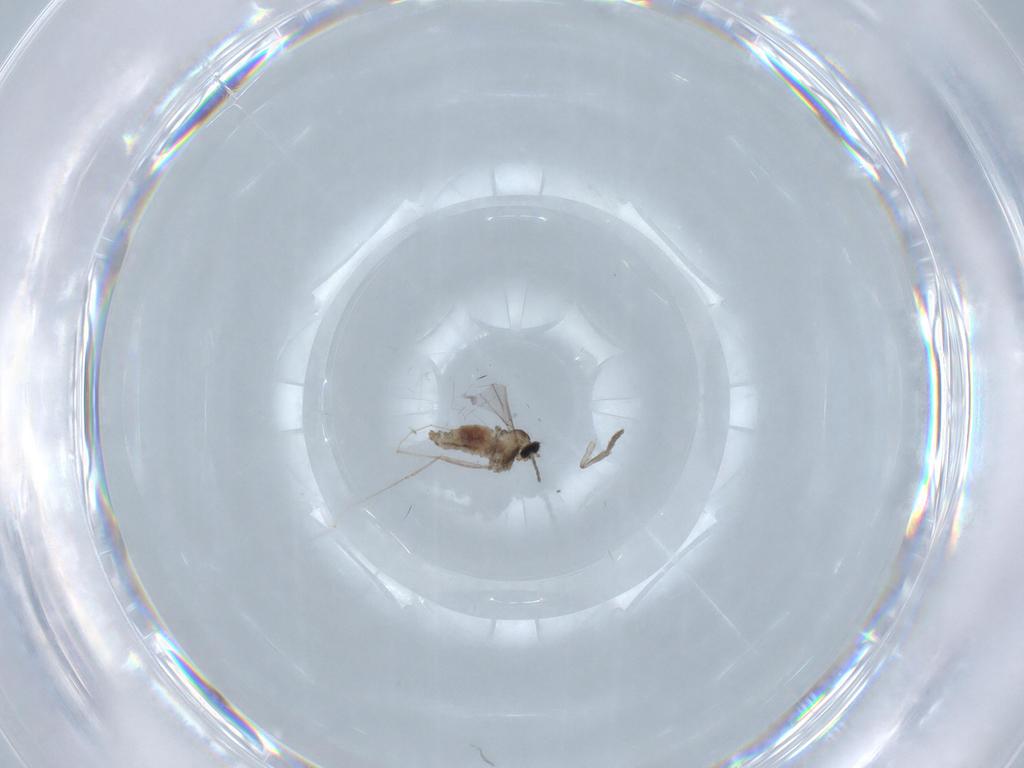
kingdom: Animalia
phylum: Arthropoda
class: Insecta
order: Diptera
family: Cecidomyiidae
